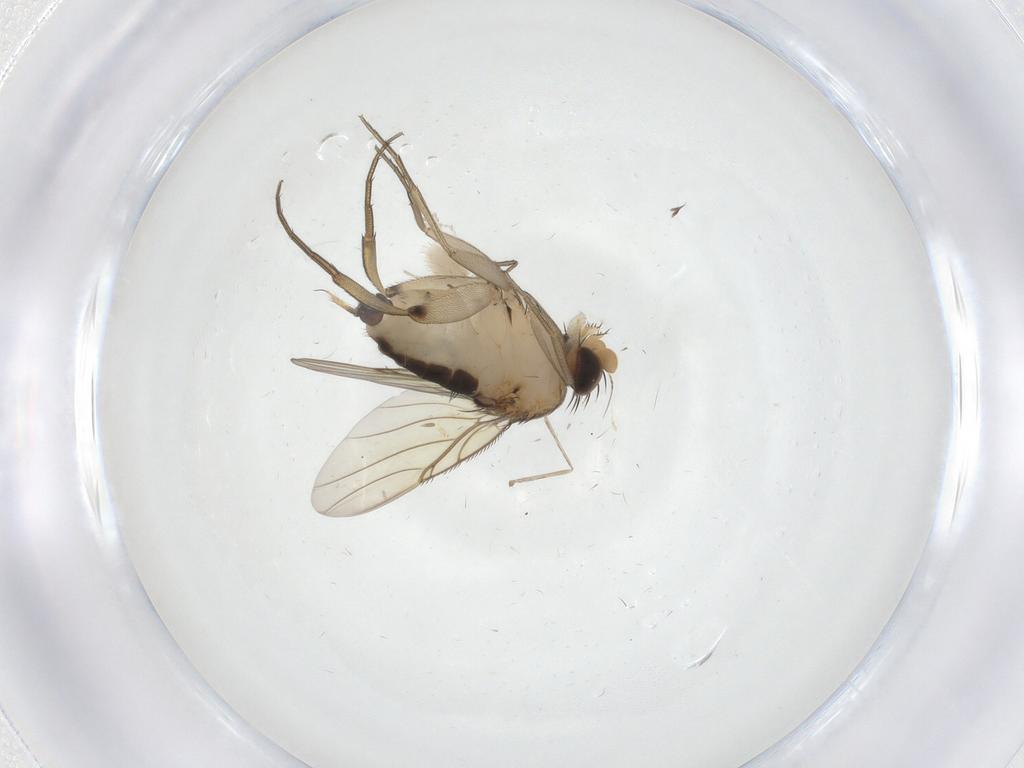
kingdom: Animalia
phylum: Arthropoda
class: Insecta
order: Diptera
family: Phoridae
